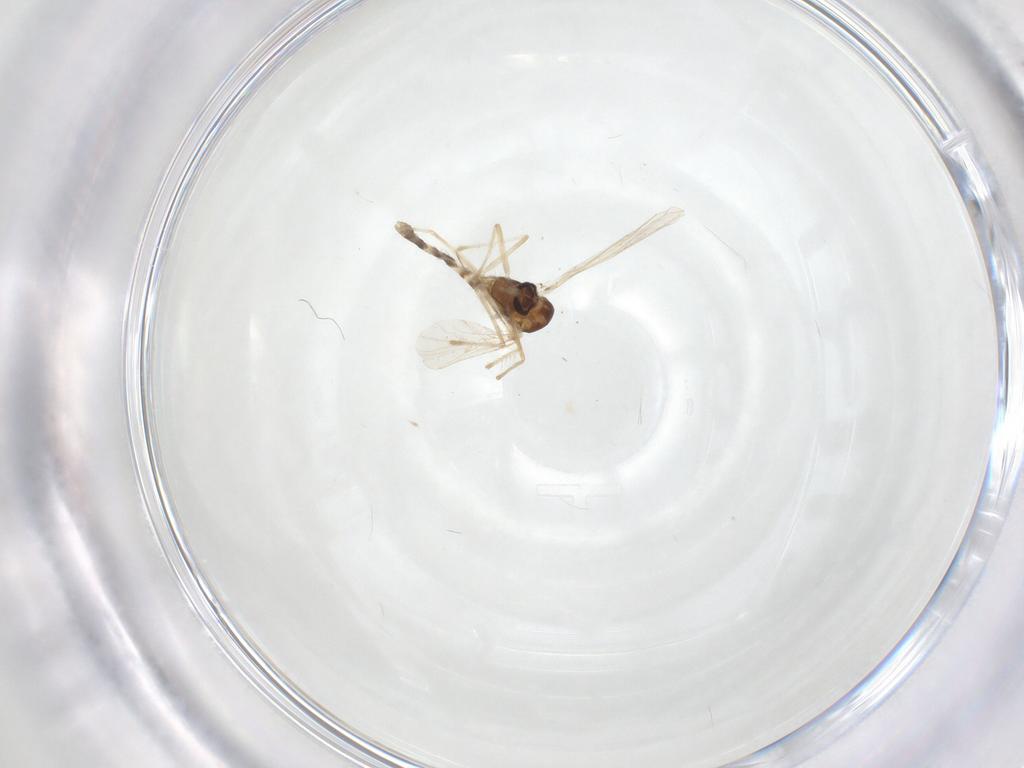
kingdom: Animalia
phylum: Arthropoda
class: Insecta
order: Diptera
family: Chironomidae
